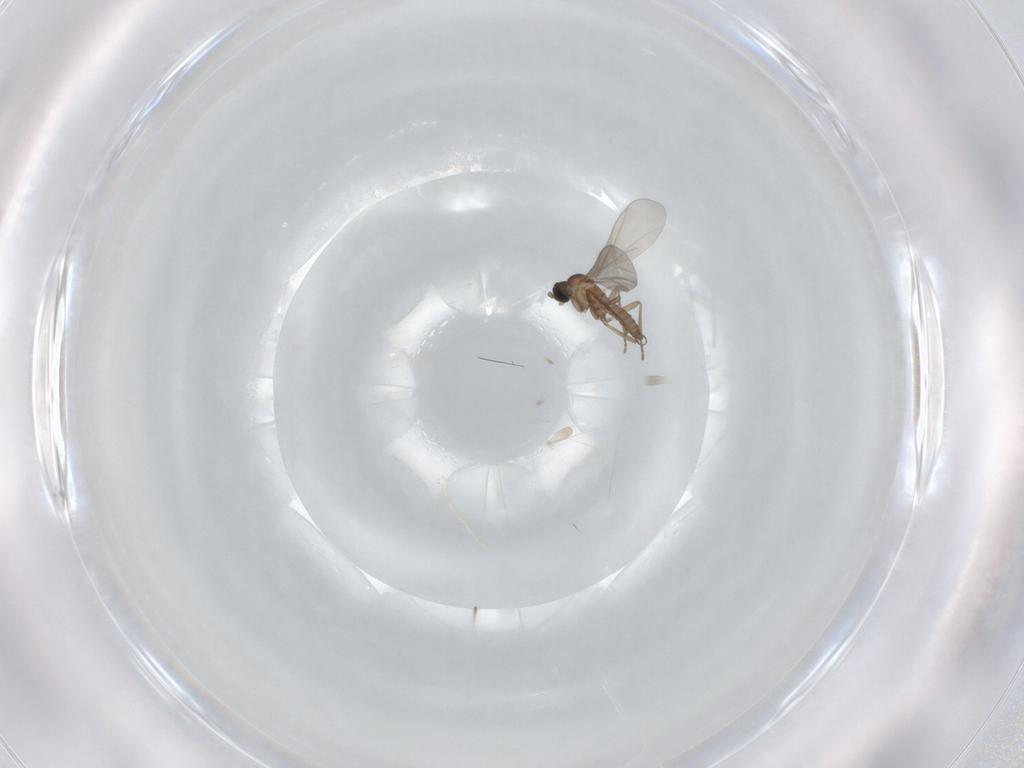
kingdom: Animalia
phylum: Arthropoda
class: Insecta
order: Diptera
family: Sciaridae
